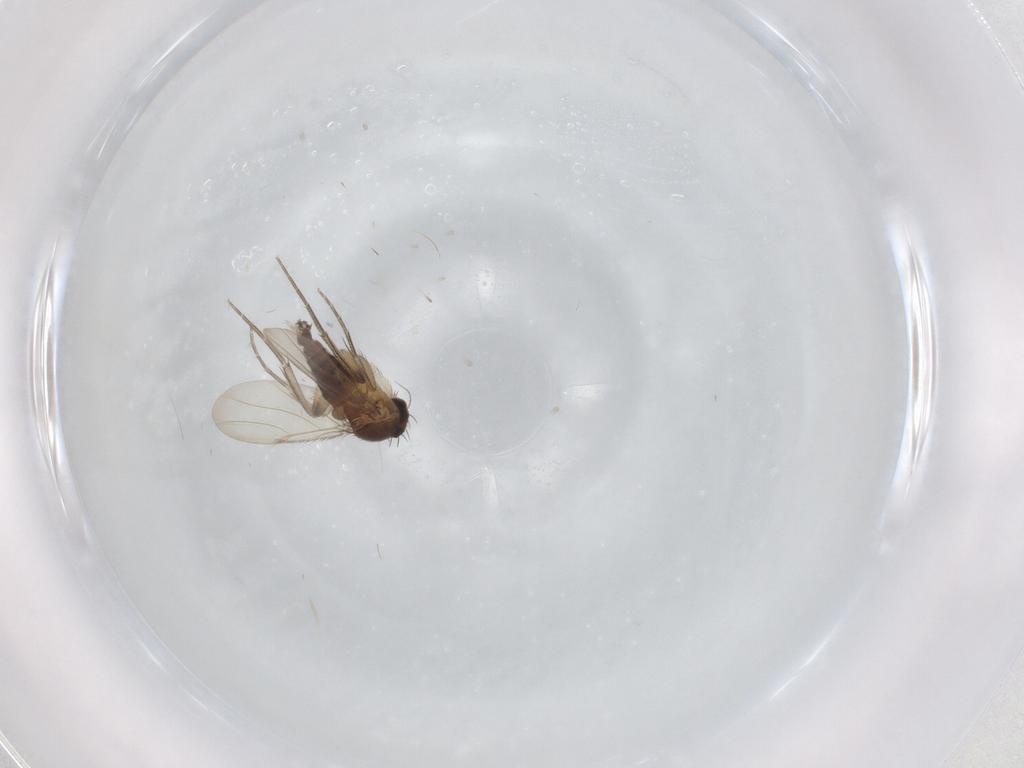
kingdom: Animalia
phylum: Arthropoda
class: Insecta
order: Diptera
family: Phoridae
